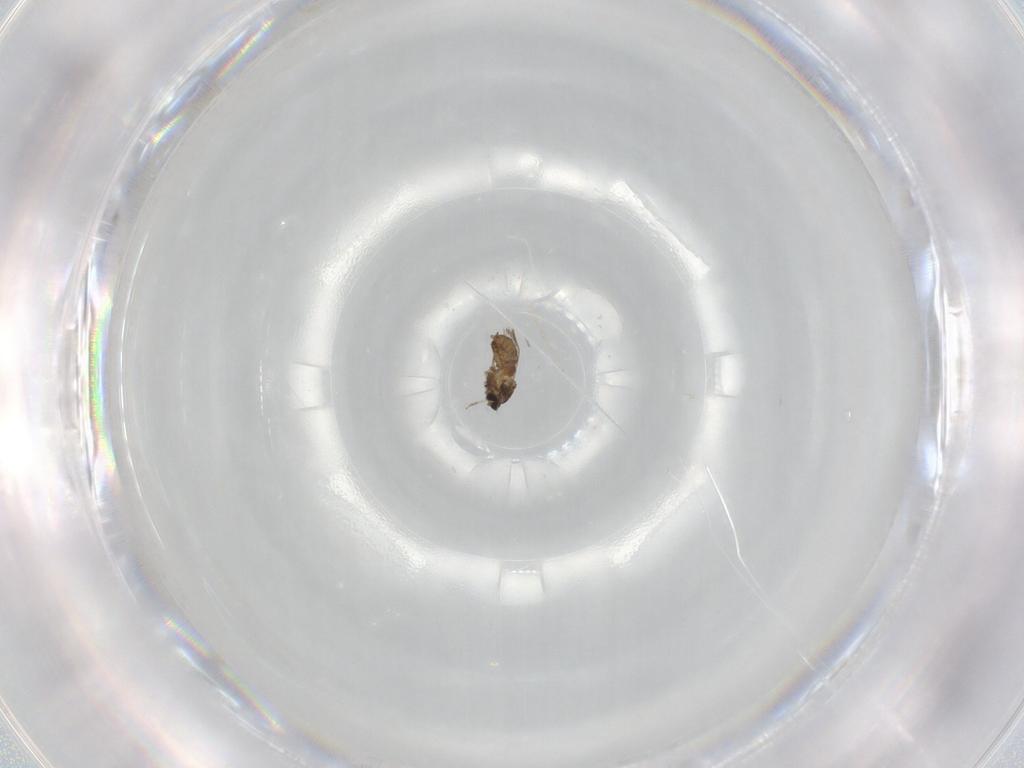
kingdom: Animalia
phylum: Arthropoda
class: Insecta
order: Diptera
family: Cecidomyiidae
